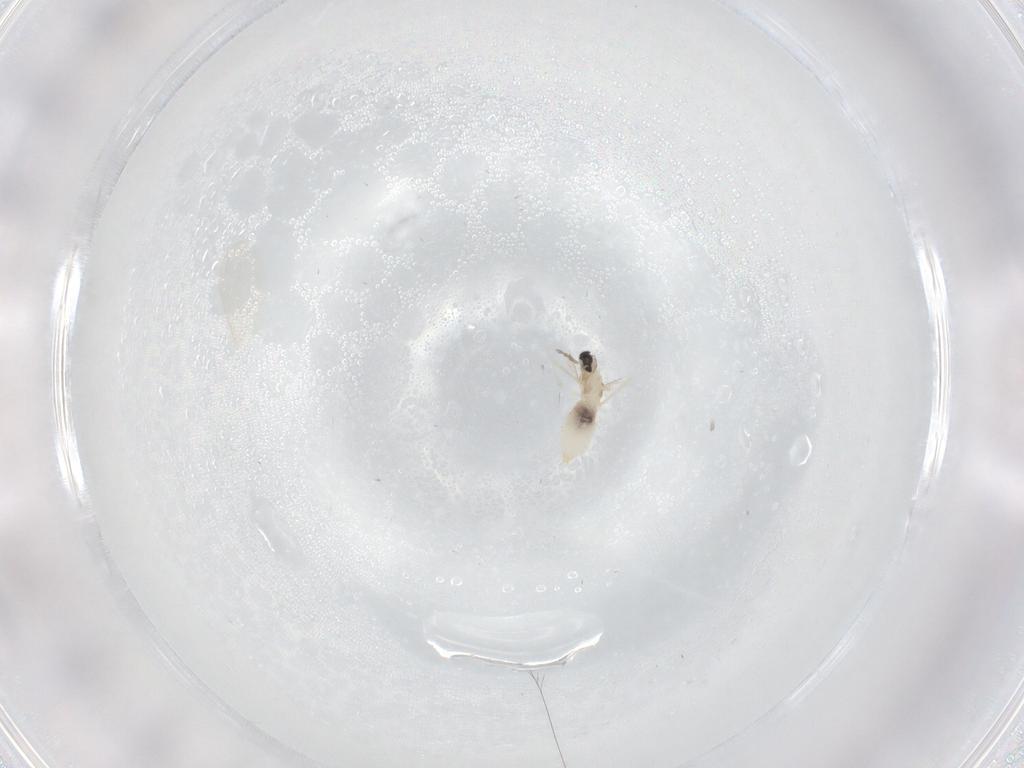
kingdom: Animalia
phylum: Arthropoda
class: Insecta
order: Diptera
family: Cecidomyiidae
